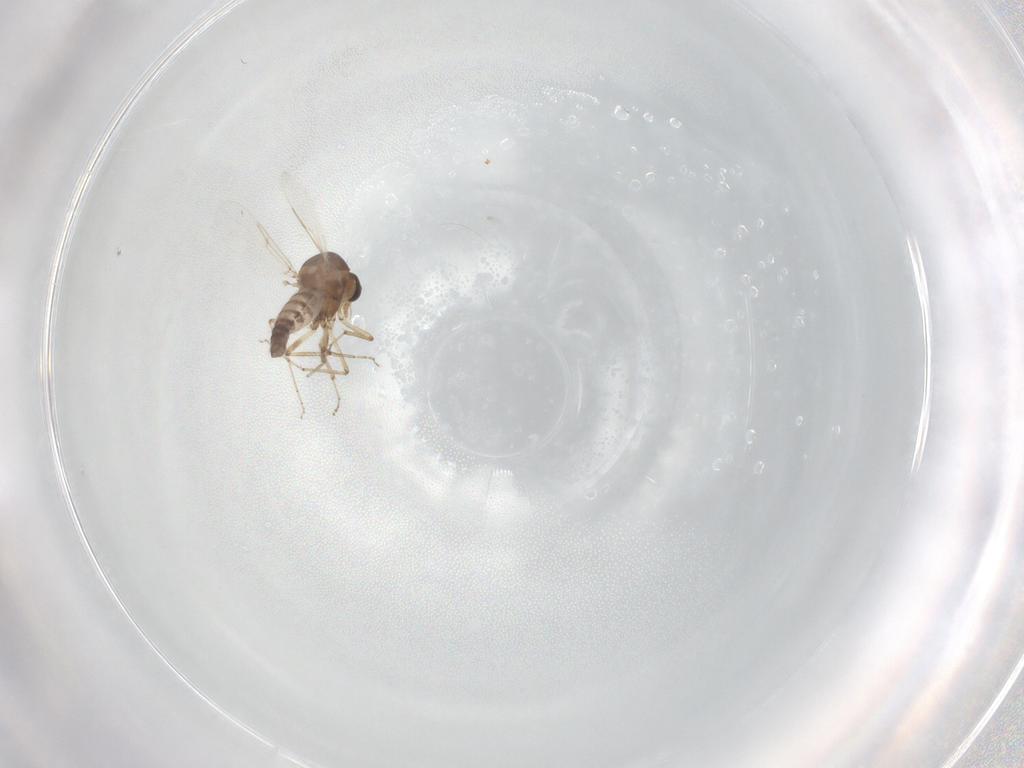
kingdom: Animalia
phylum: Arthropoda
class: Insecta
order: Diptera
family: Ceratopogonidae
